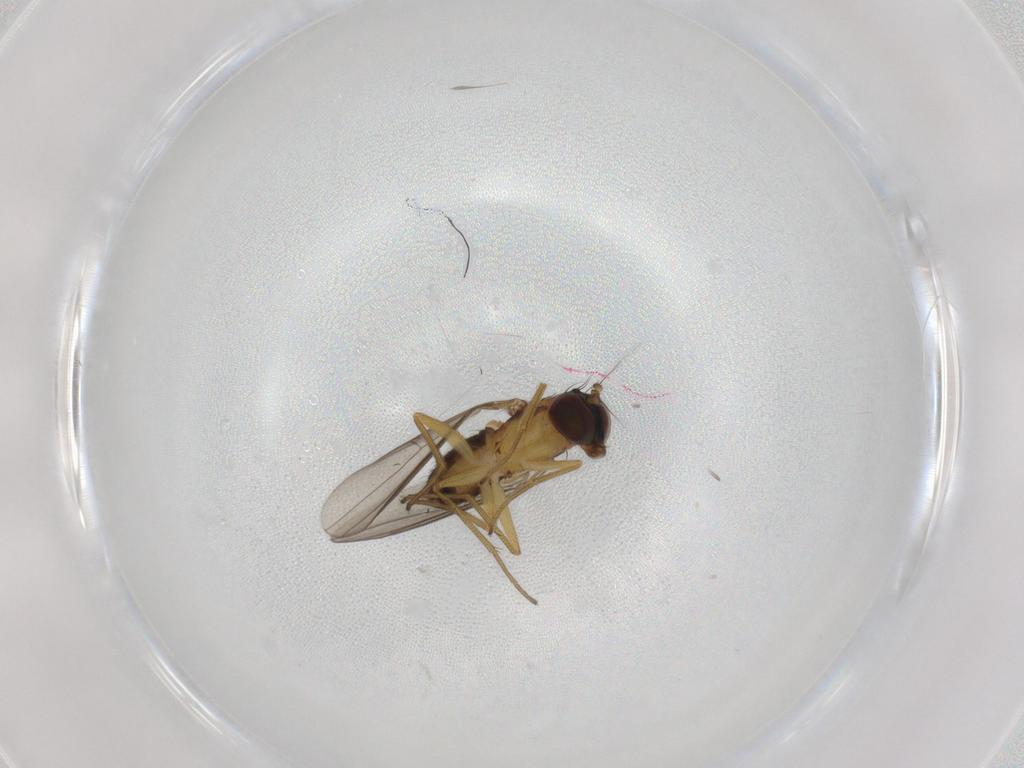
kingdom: Animalia
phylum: Arthropoda
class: Insecta
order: Diptera
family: Dolichopodidae
